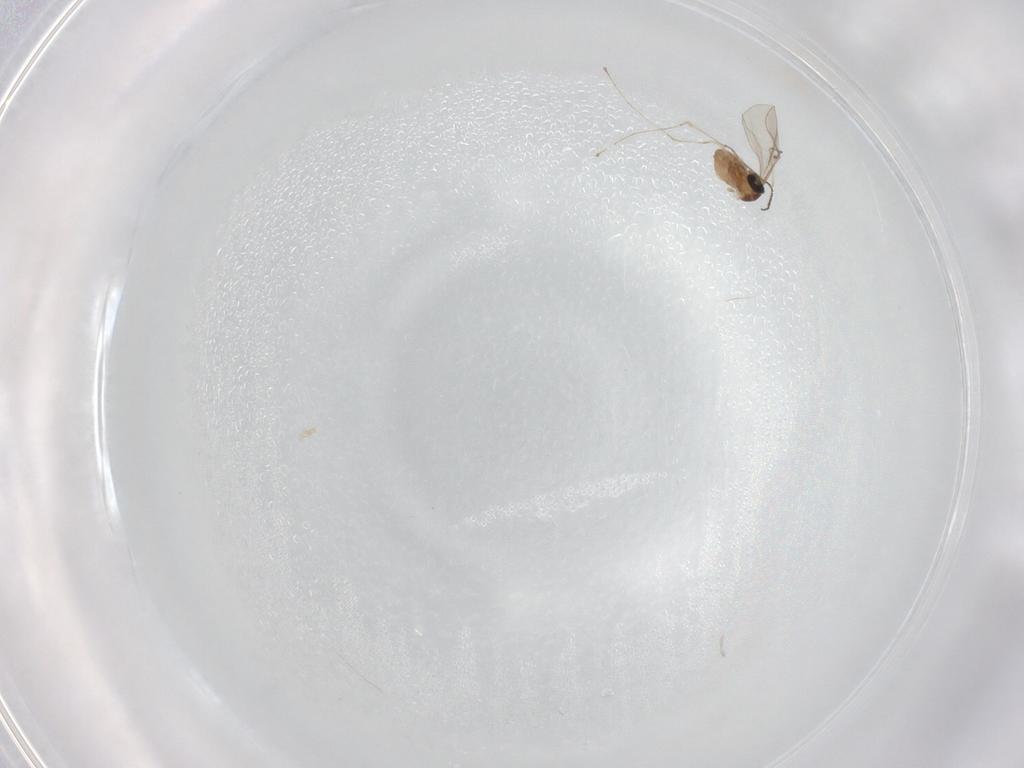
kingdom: Animalia
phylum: Arthropoda
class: Insecta
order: Diptera
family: Cecidomyiidae
